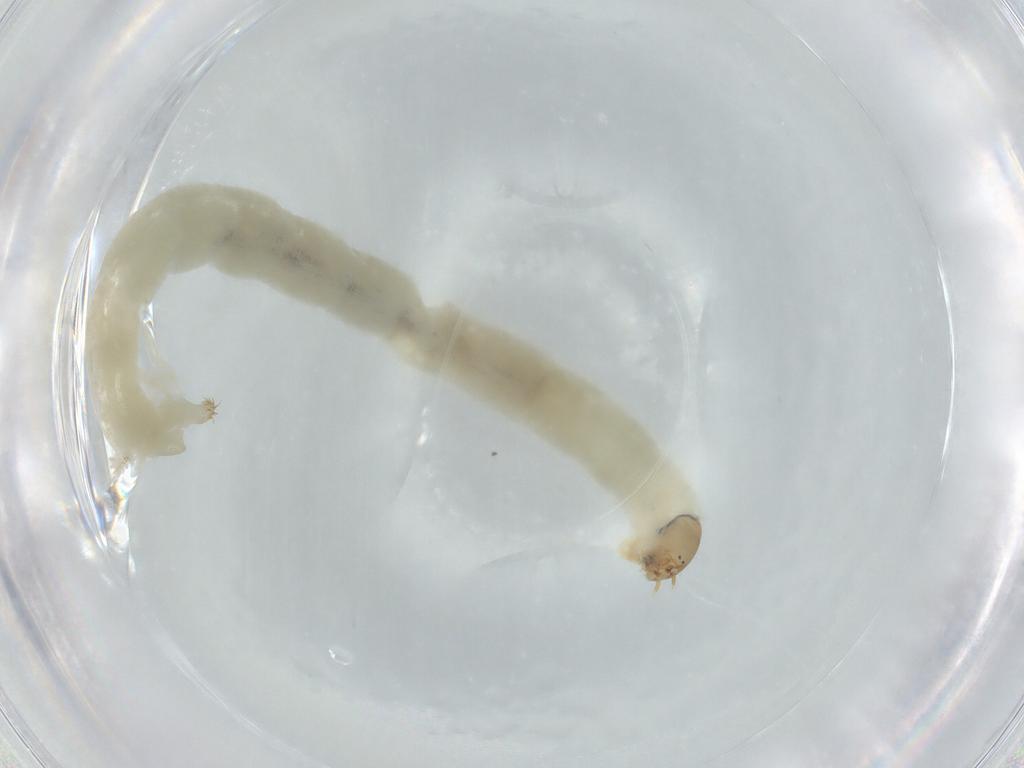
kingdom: Animalia
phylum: Arthropoda
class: Insecta
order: Diptera
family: Chironomidae
